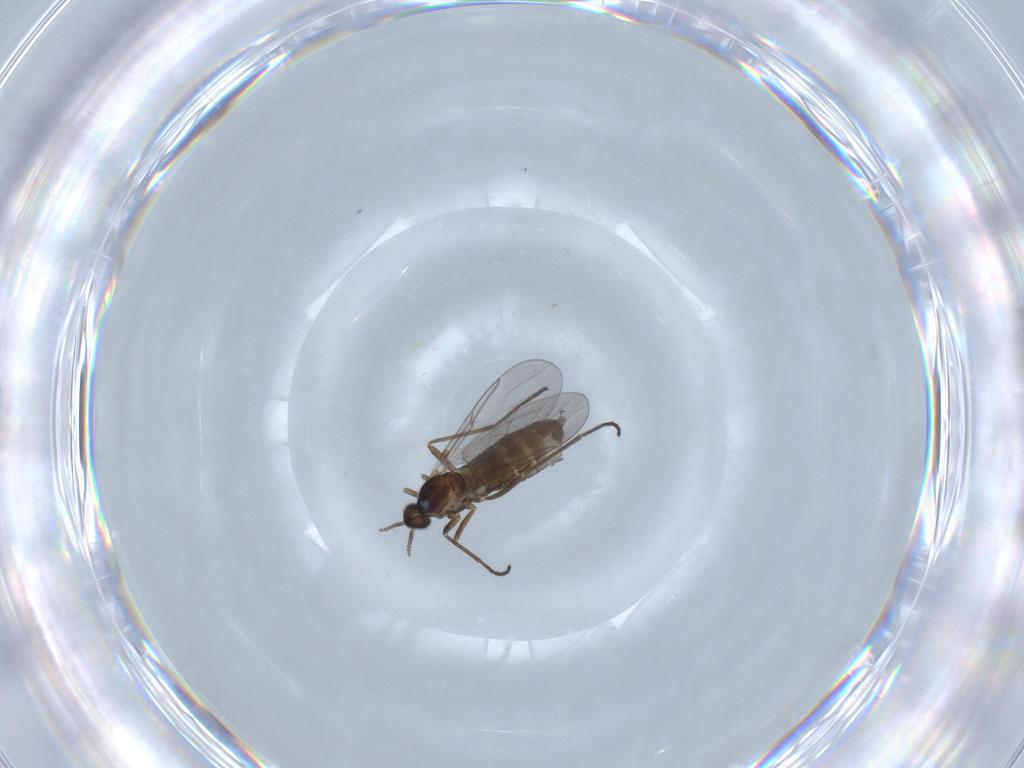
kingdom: Animalia
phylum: Arthropoda
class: Insecta
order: Diptera
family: Cecidomyiidae
